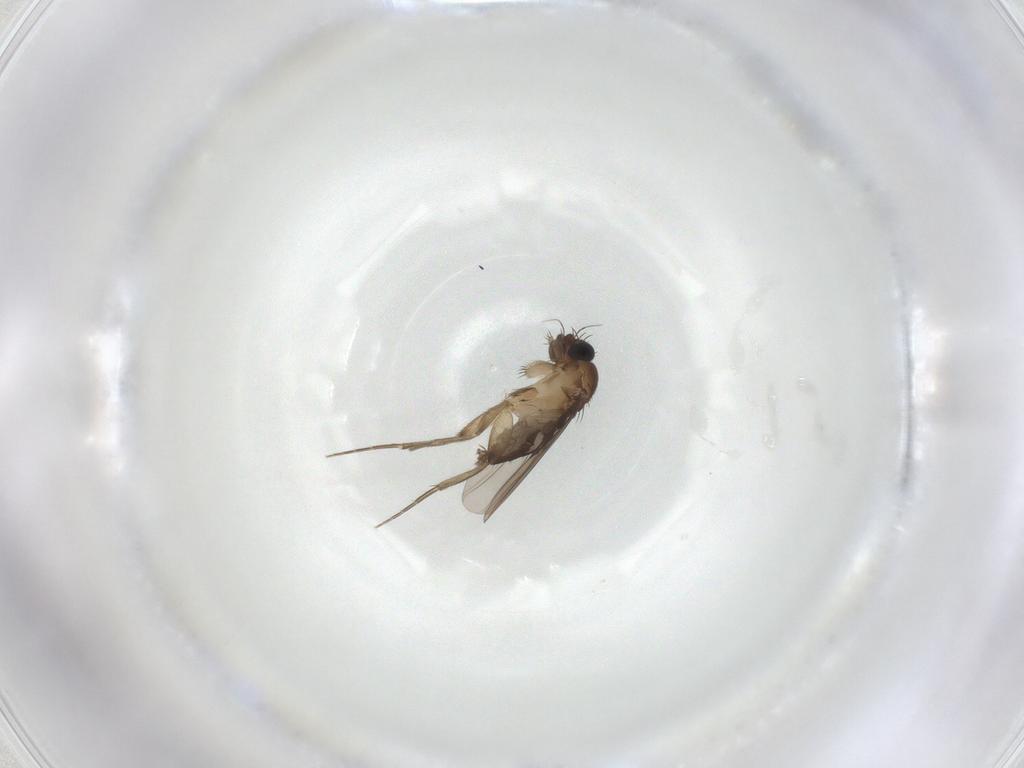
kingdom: Animalia
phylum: Arthropoda
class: Insecta
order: Diptera
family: Phoridae
